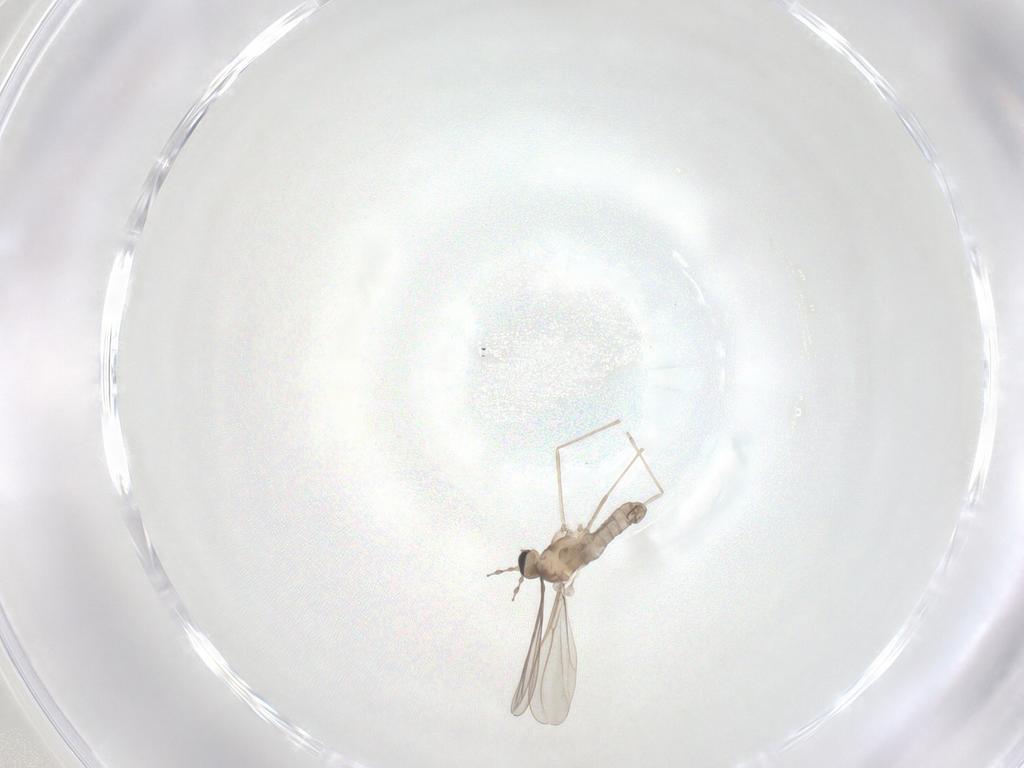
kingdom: Animalia
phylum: Arthropoda
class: Insecta
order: Diptera
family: Cecidomyiidae
